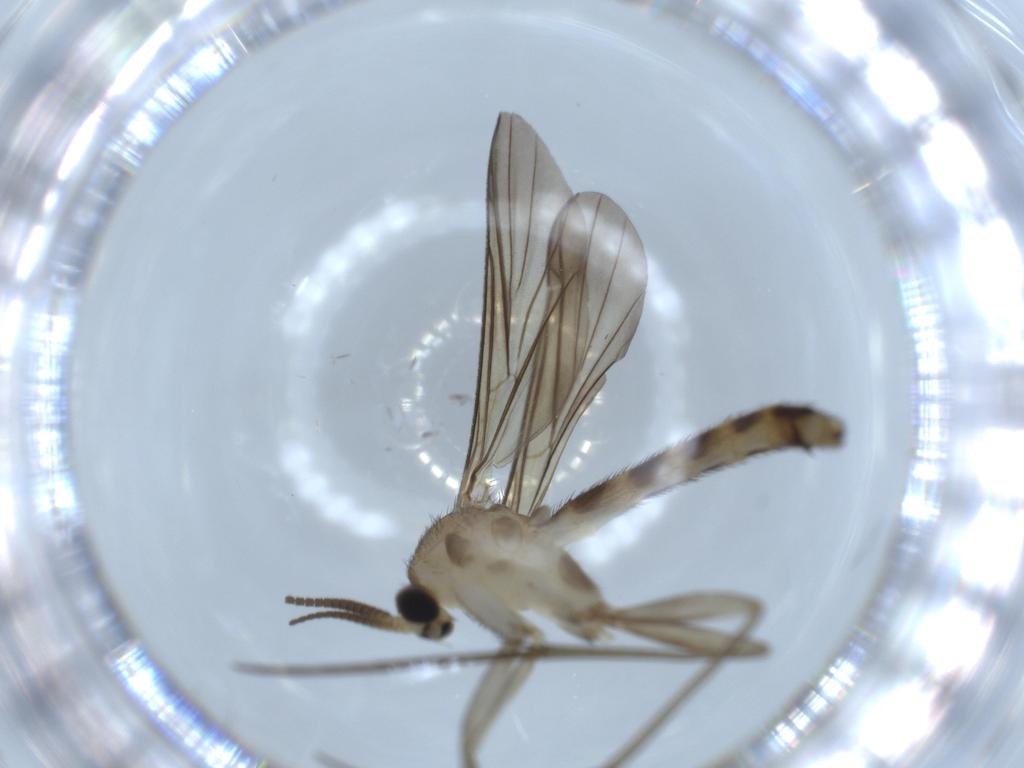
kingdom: Animalia
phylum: Arthropoda
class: Insecta
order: Diptera
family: Cecidomyiidae
